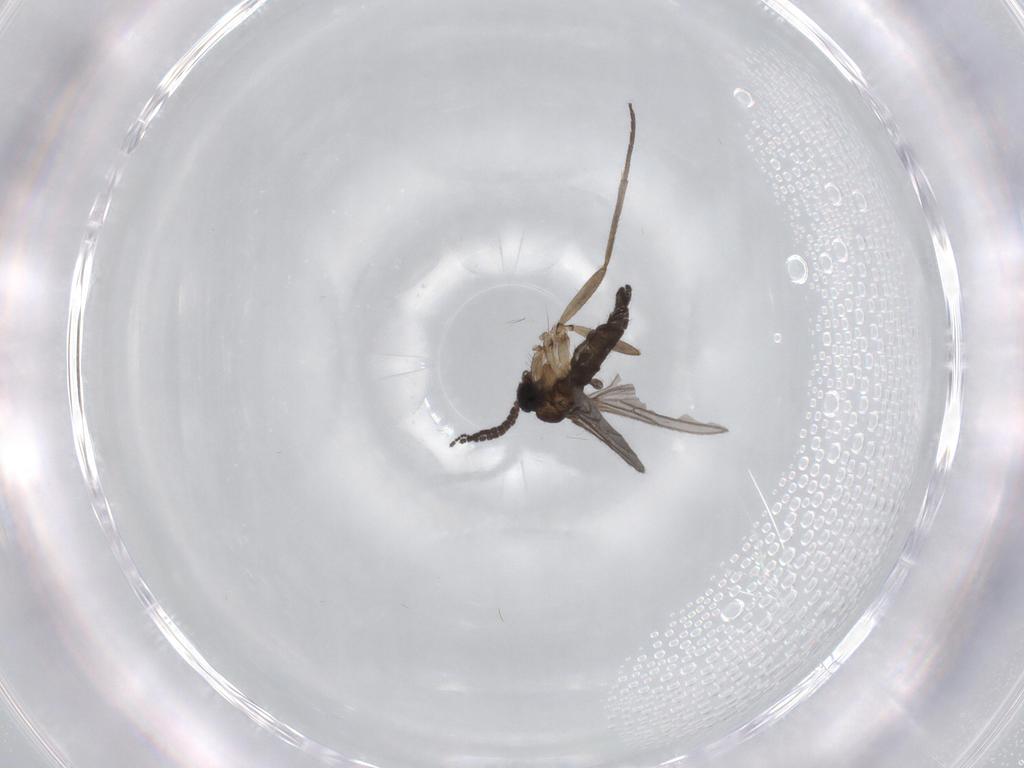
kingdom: Animalia
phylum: Arthropoda
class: Insecta
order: Diptera
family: Sciaridae
